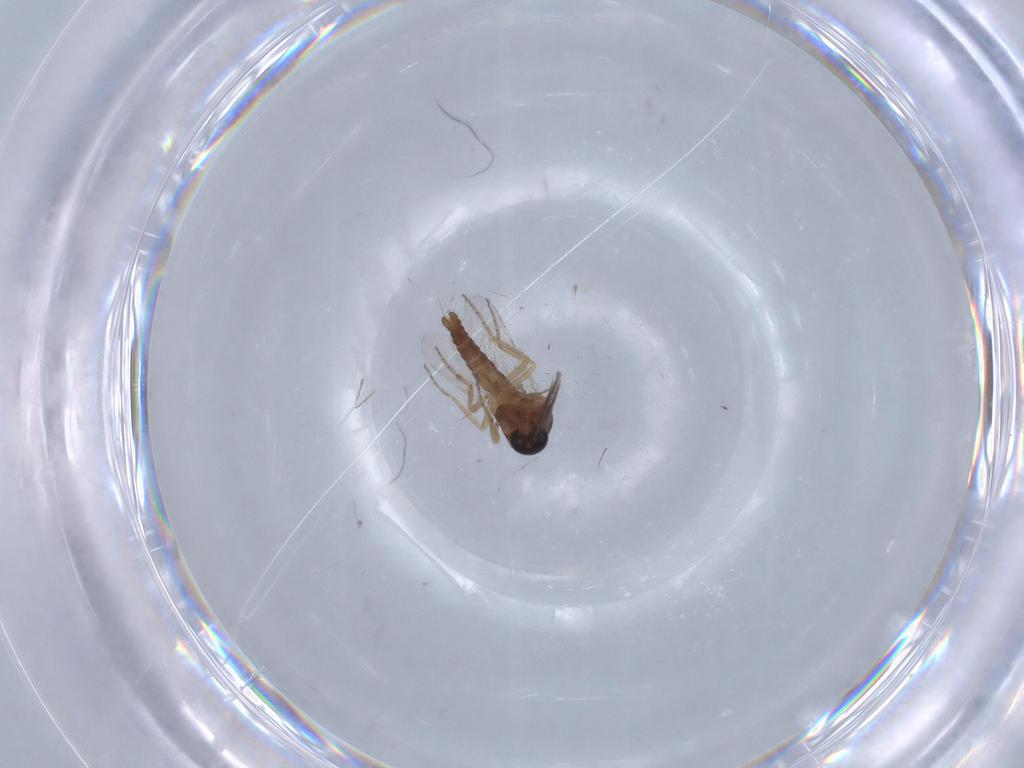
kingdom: Animalia
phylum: Arthropoda
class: Insecta
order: Diptera
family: Ceratopogonidae
